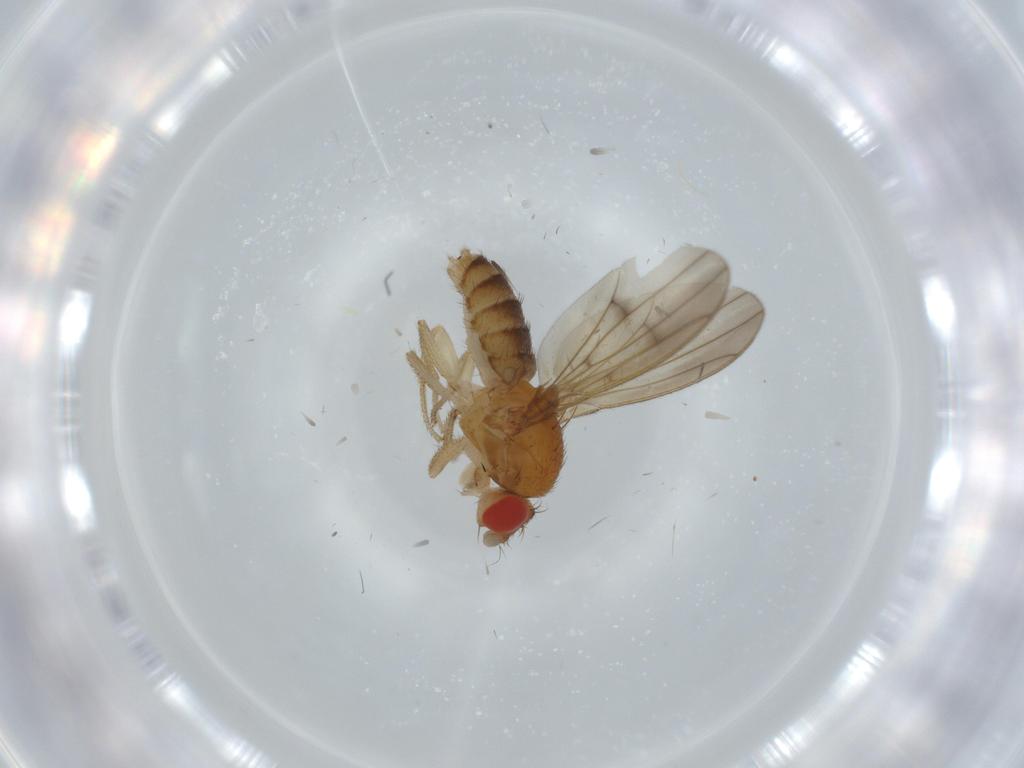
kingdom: Animalia
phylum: Arthropoda
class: Insecta
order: Diptera
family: Drosophilidae
